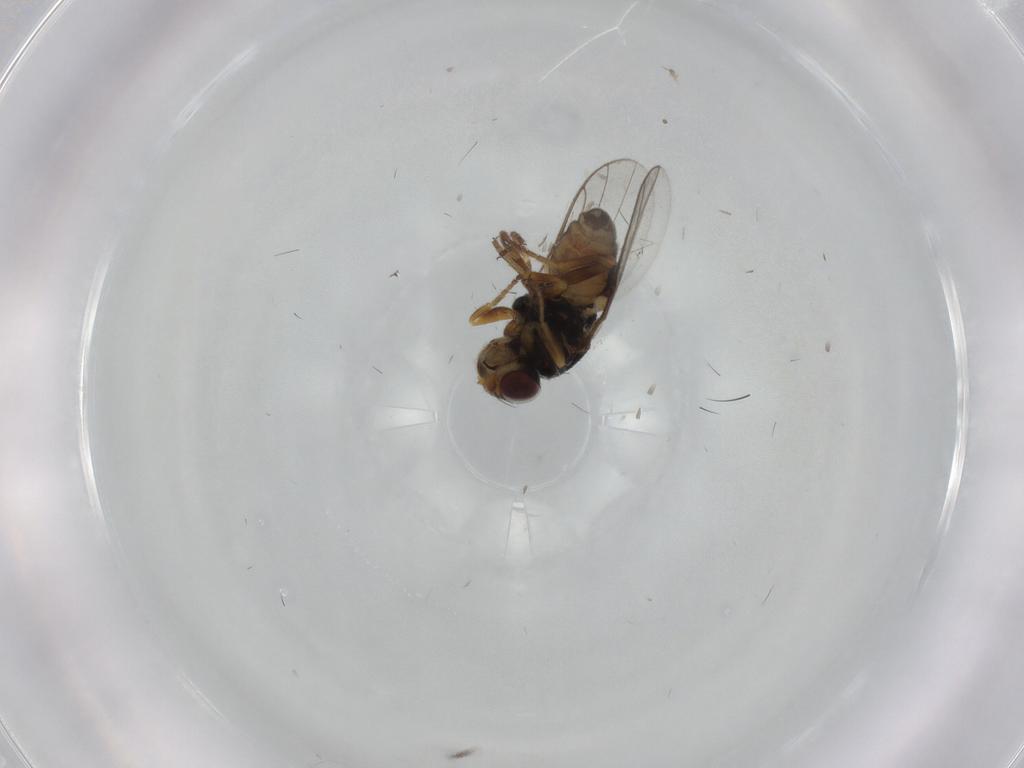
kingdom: Animalia
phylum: Arthropoda
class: Insecta
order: Diptera
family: Chloropidae
